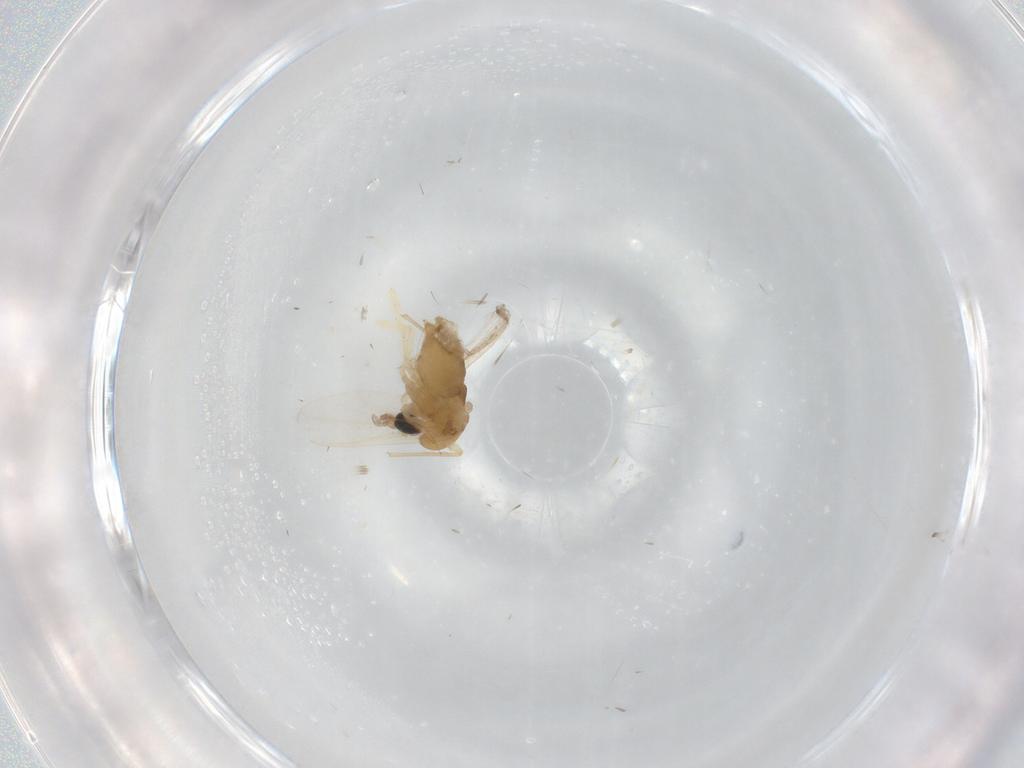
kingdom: Animalia
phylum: Arthropoda
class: Insecta
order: Diptera
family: Chironomidae
